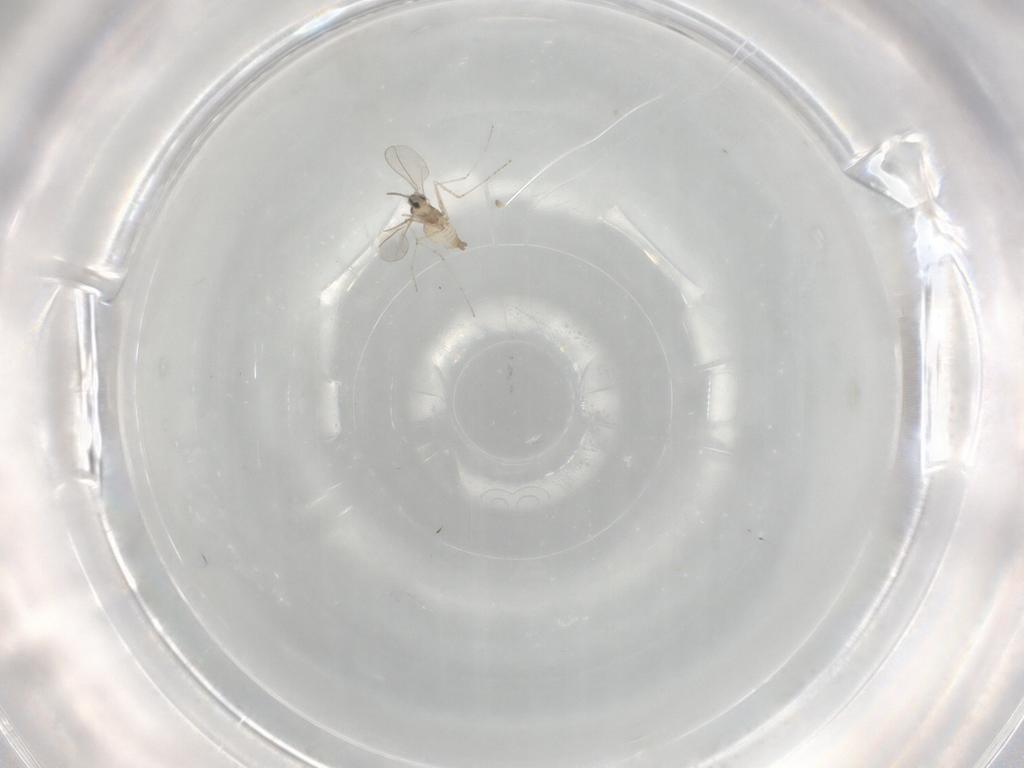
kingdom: Animalia
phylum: Arthropoda
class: Insecta
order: Diptera
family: Cecidomyiidae
